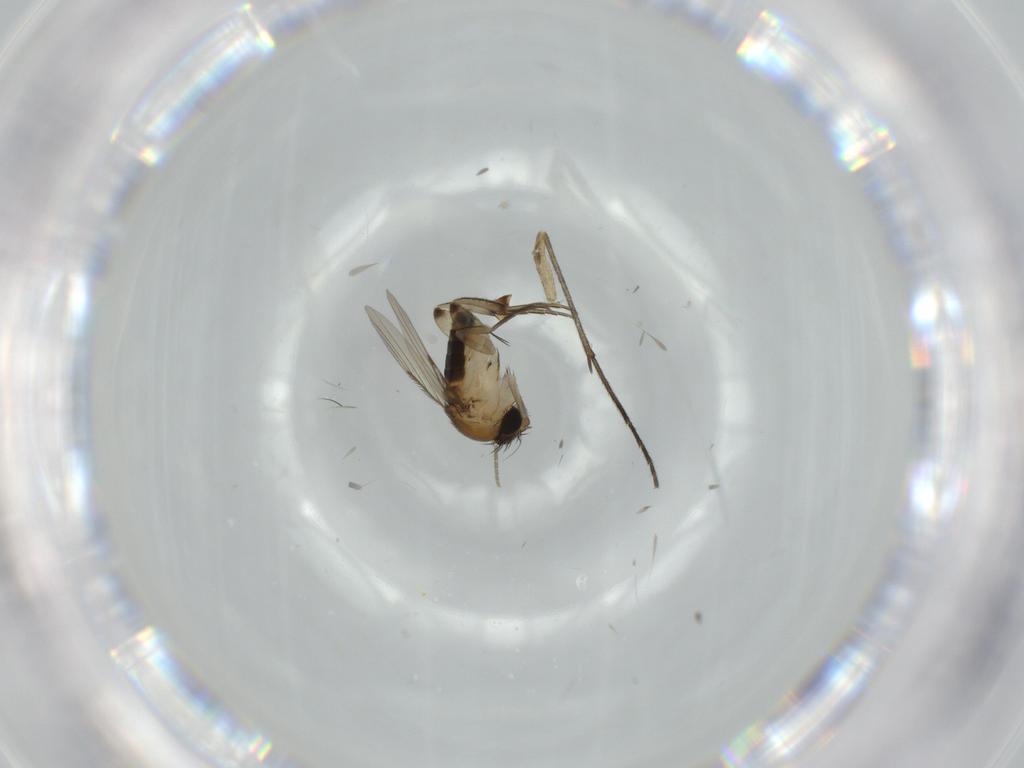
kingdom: Animalia
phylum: Arthropoda
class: Insecta
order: Diptera
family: Phoridae
